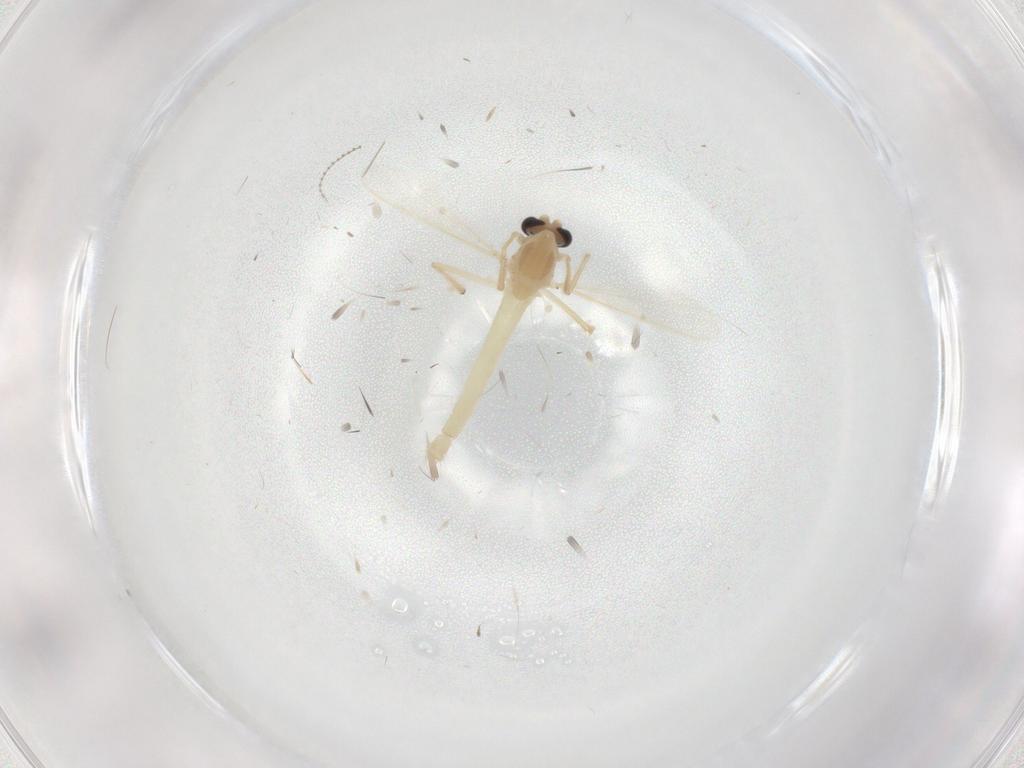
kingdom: Animalia
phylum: Arthropoda
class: Insecta
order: Diptera
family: Chironomidae
